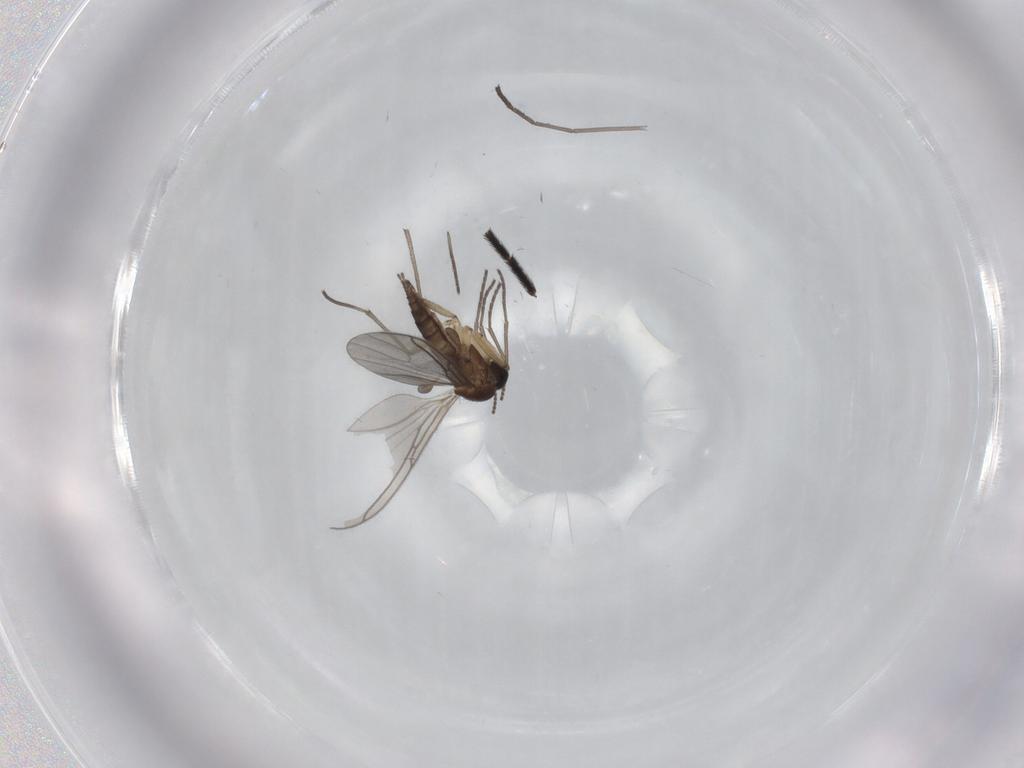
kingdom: Animalia
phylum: Arthropoda
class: Insecta
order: Diptera
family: Sciaridae
